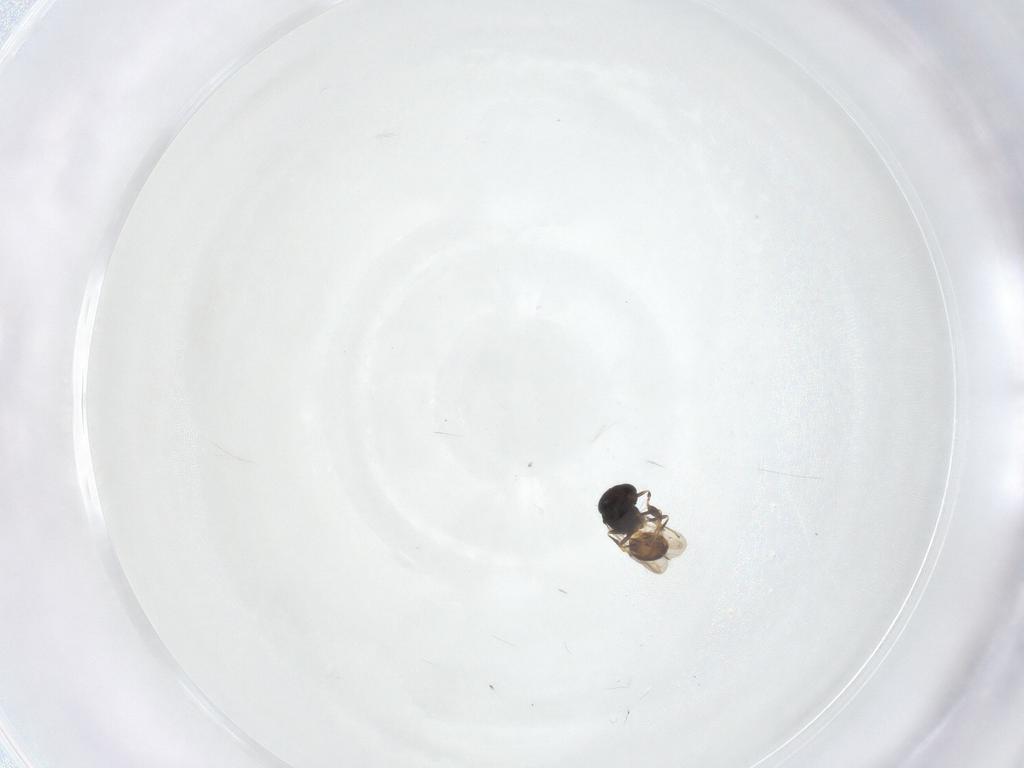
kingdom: Animalia
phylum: Arthropoda
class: Arachnida
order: Araneae
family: Pholcidae
